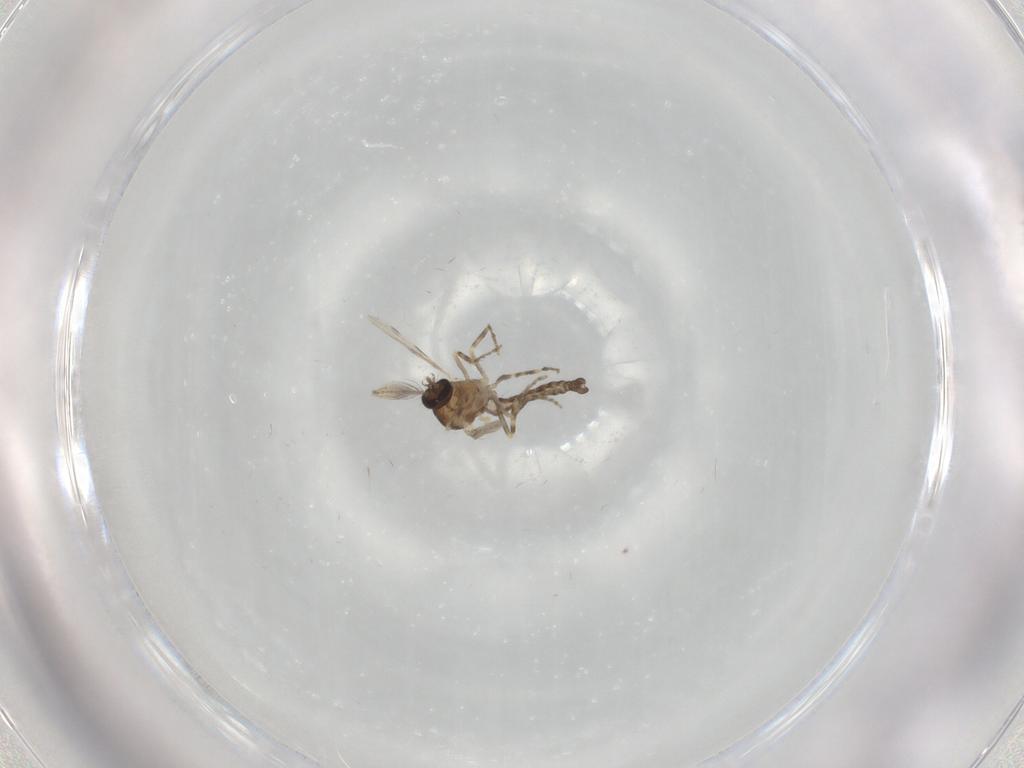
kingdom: Animalia
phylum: Arthropoda
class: Insecta
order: Diptera
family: Ceratopogonidae
